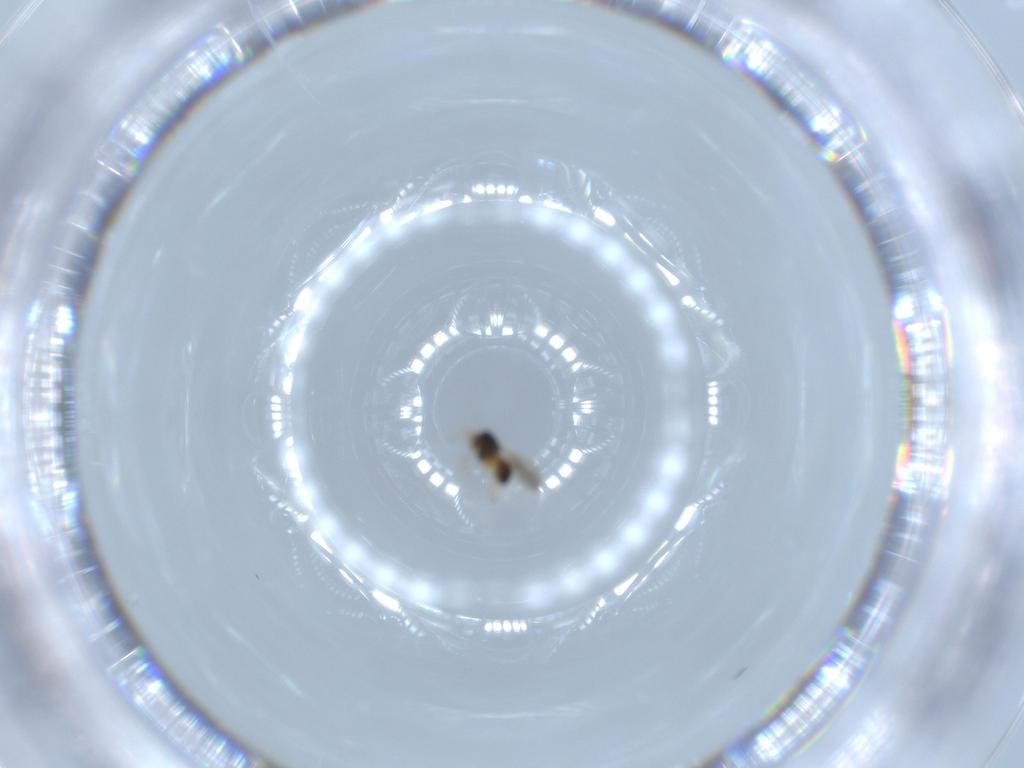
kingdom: Animalia
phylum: Arthropoda
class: Insecta
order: Hymenoptera
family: Scelionidae
